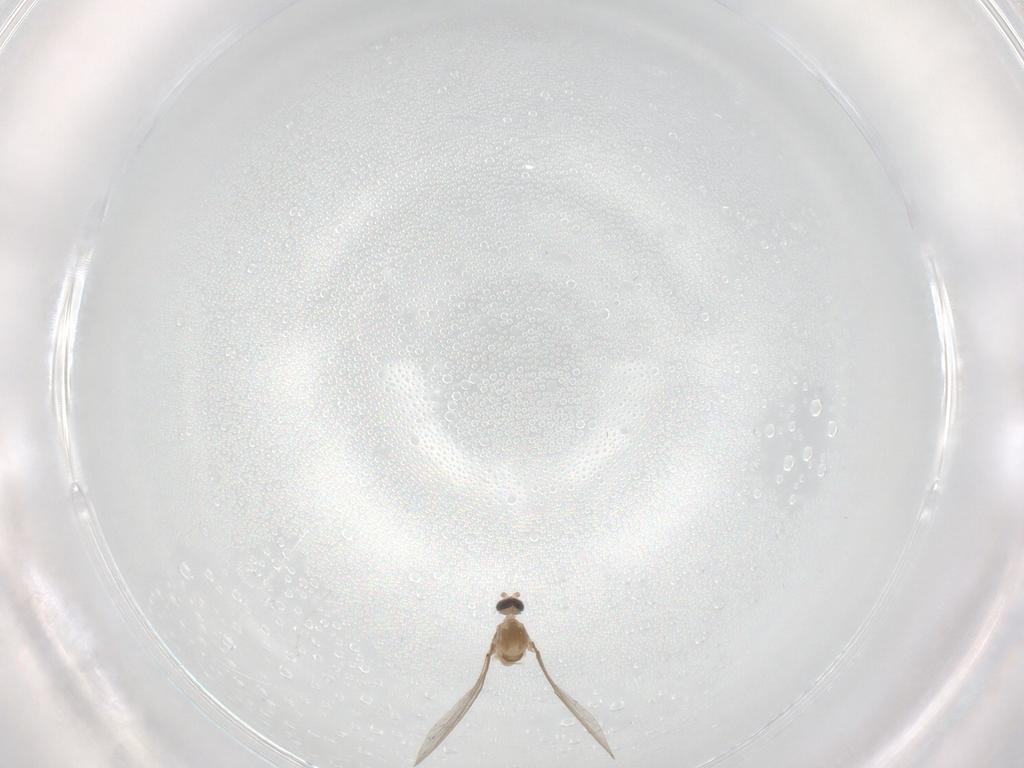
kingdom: Animalia
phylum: Arthropoda
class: Insecta
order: Diptera
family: Cecidomyiidae
